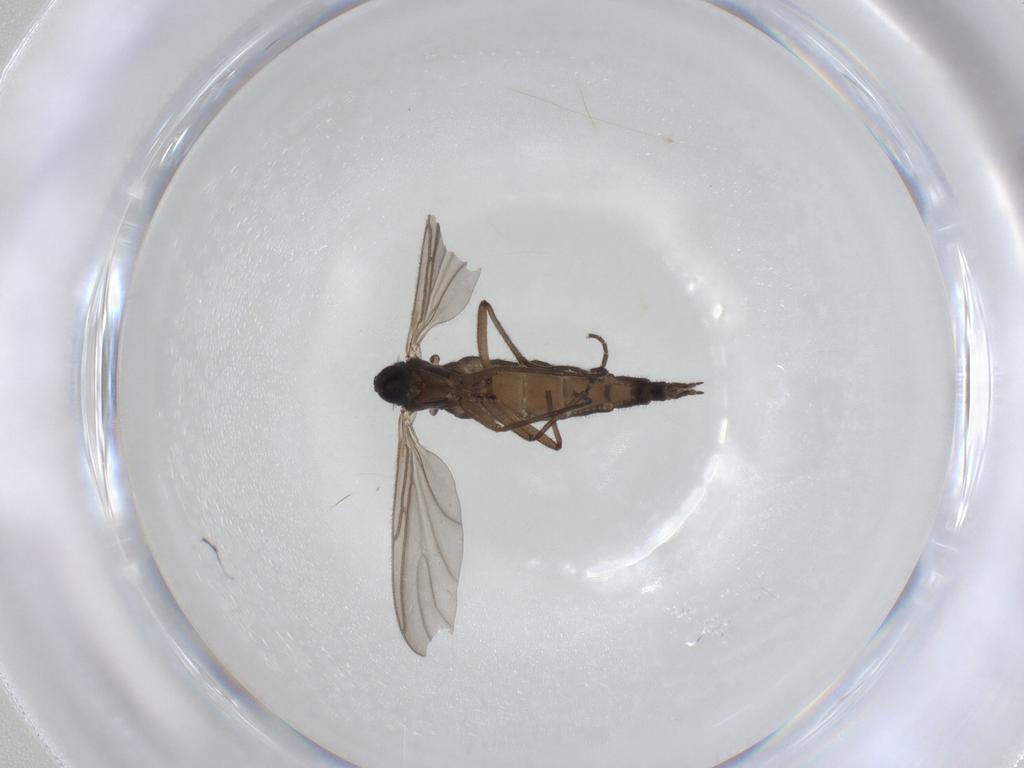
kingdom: Animalia
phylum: Arthropoda
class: Insecta
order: Diptera
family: Sciaridae
